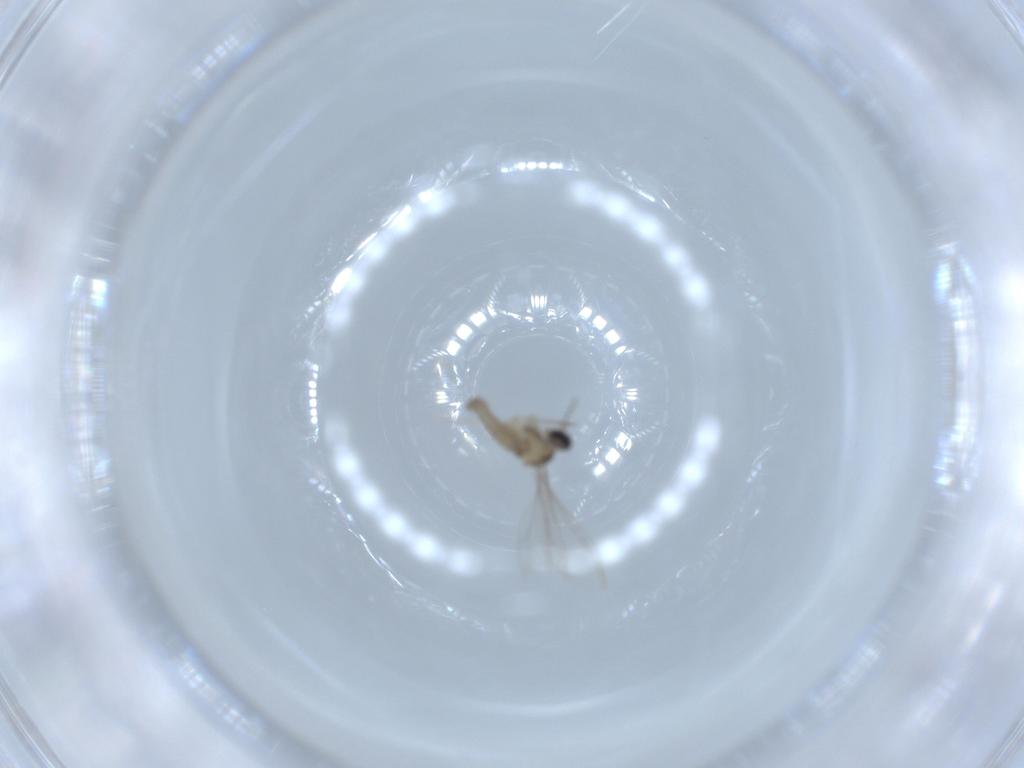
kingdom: Animalia
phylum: Arthropoda
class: Insecta
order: Diptera
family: Cecidomyiidae
